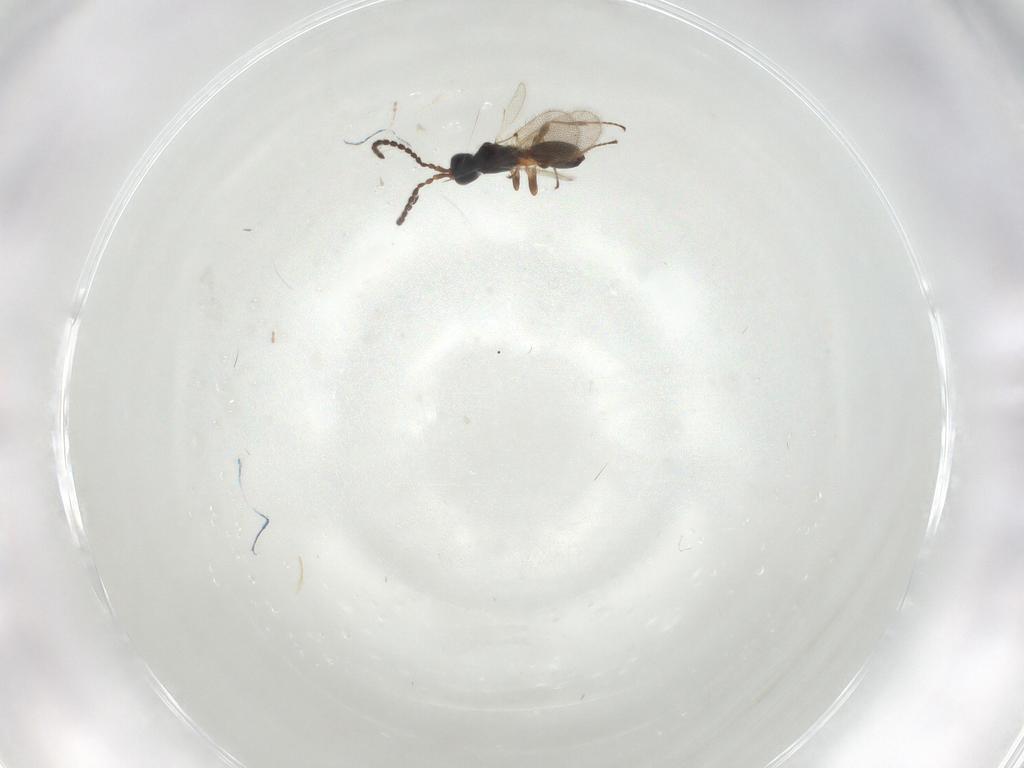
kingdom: Animalia
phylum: Arthropoda
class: Insecta
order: Hymenoptera
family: Diapriidae
